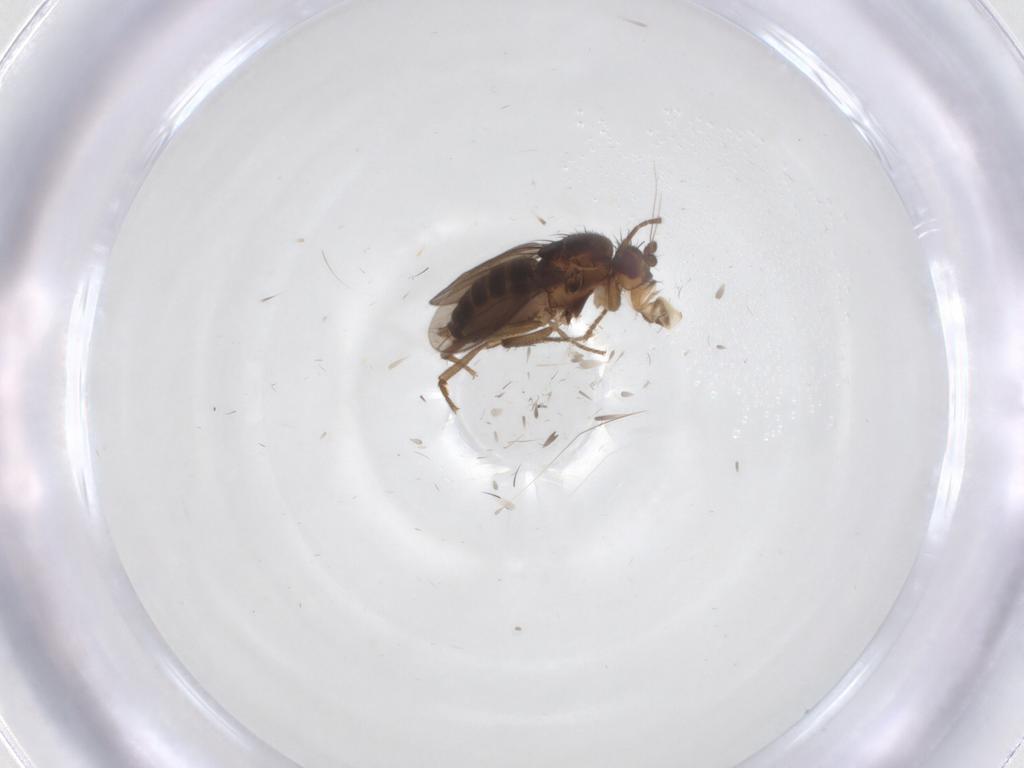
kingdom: Animalia
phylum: Arthropoda
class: Insecta
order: Diptera
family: Sphaeroceridae
